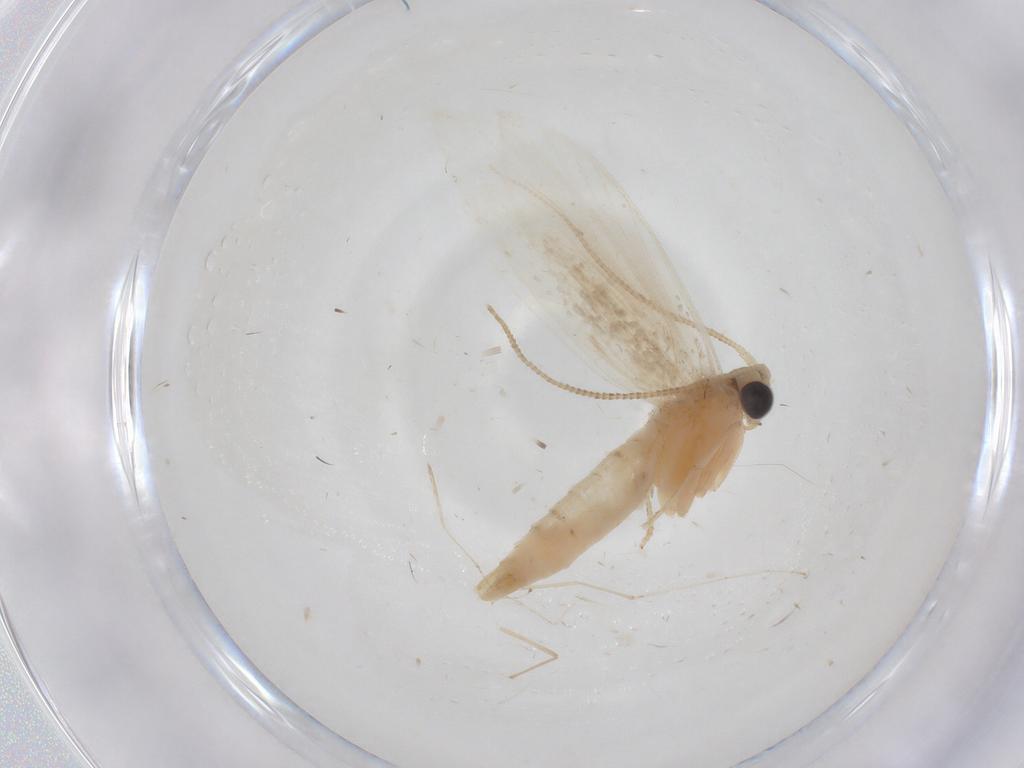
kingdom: Animalia
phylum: Arthropoda
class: Insecta
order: Lepidoptera
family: Tineidae
